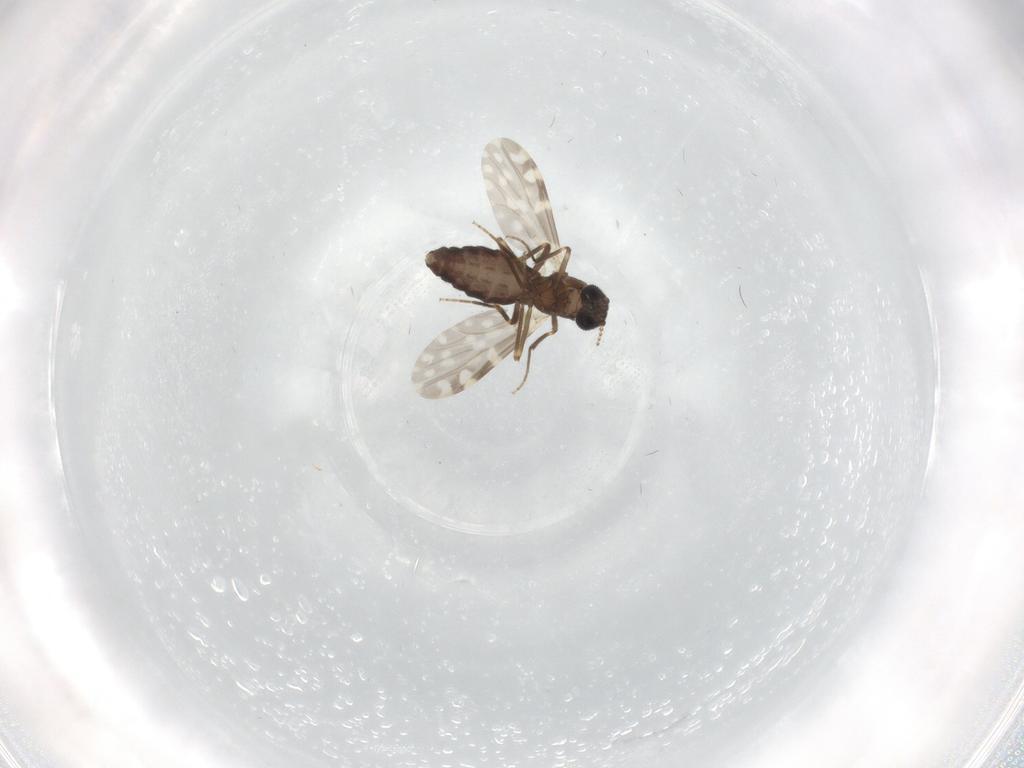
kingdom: Animalia
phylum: Arthropoda
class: Insecta
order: Diptera
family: Ceratopogonidae
